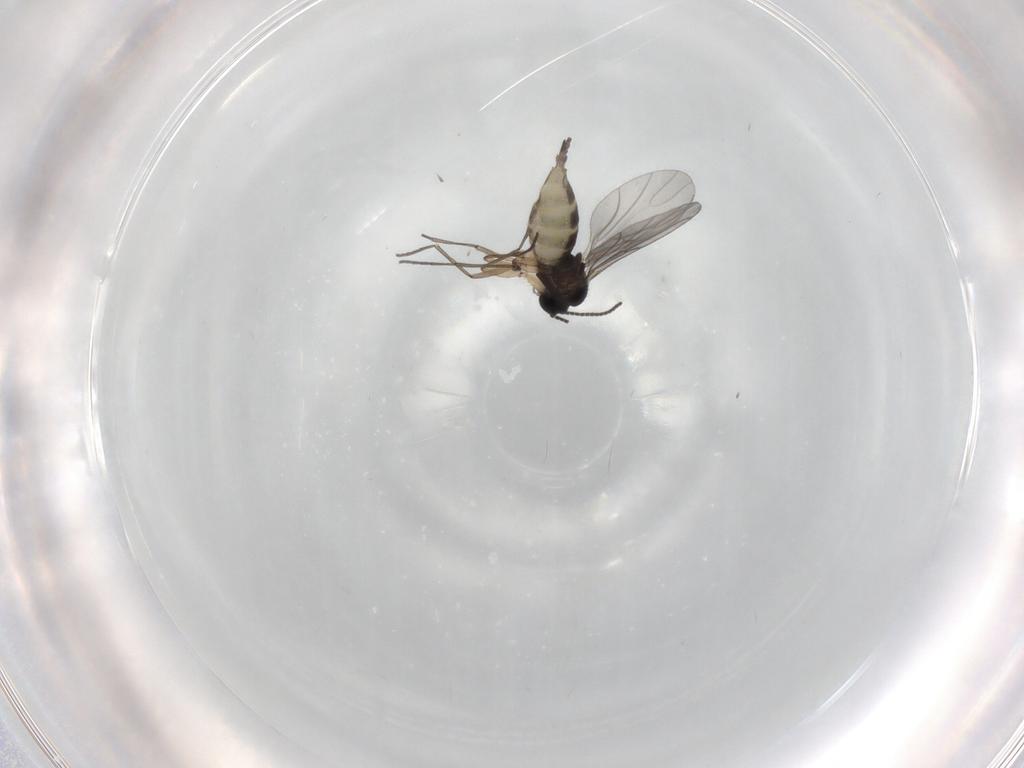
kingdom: Animalia
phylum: Arthropoda
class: Insecta
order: Diptera
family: Sciaridae
